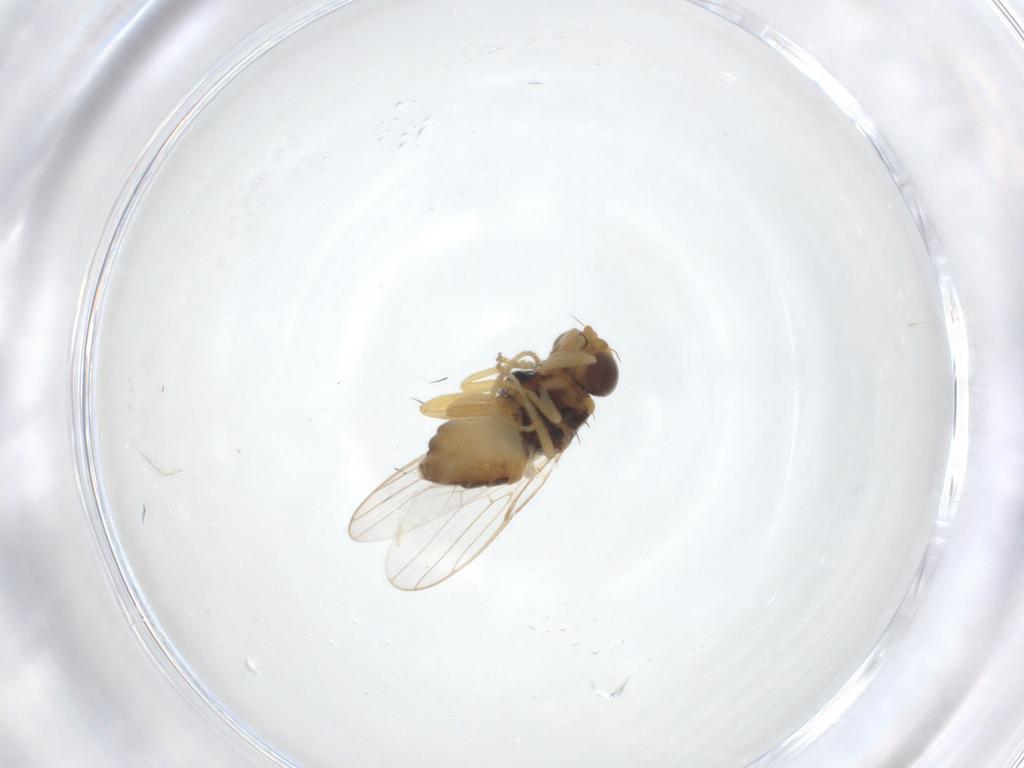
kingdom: Animalia
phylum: Arthropoda
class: Insecta
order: Diptera
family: Chloropidae
